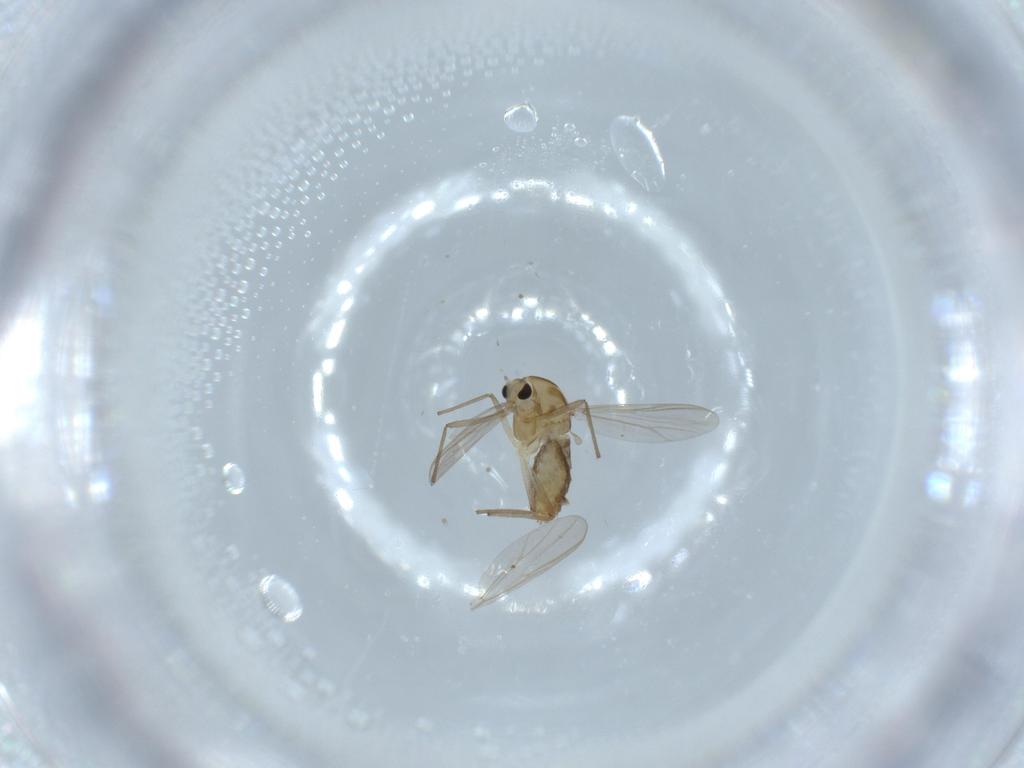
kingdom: Animalia
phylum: Arthropoda
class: Insecta
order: Diptera
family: Chironomidae
